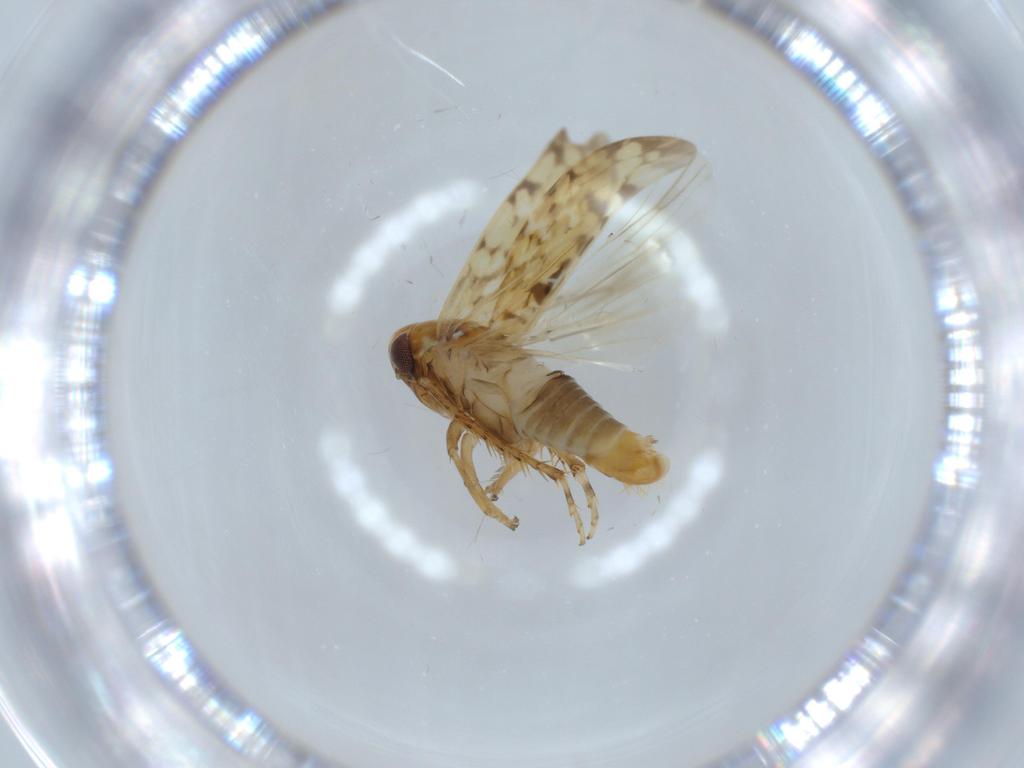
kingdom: Animalia
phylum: Arthropoda
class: Insecta
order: Hemiptera
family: Cicadellidae
